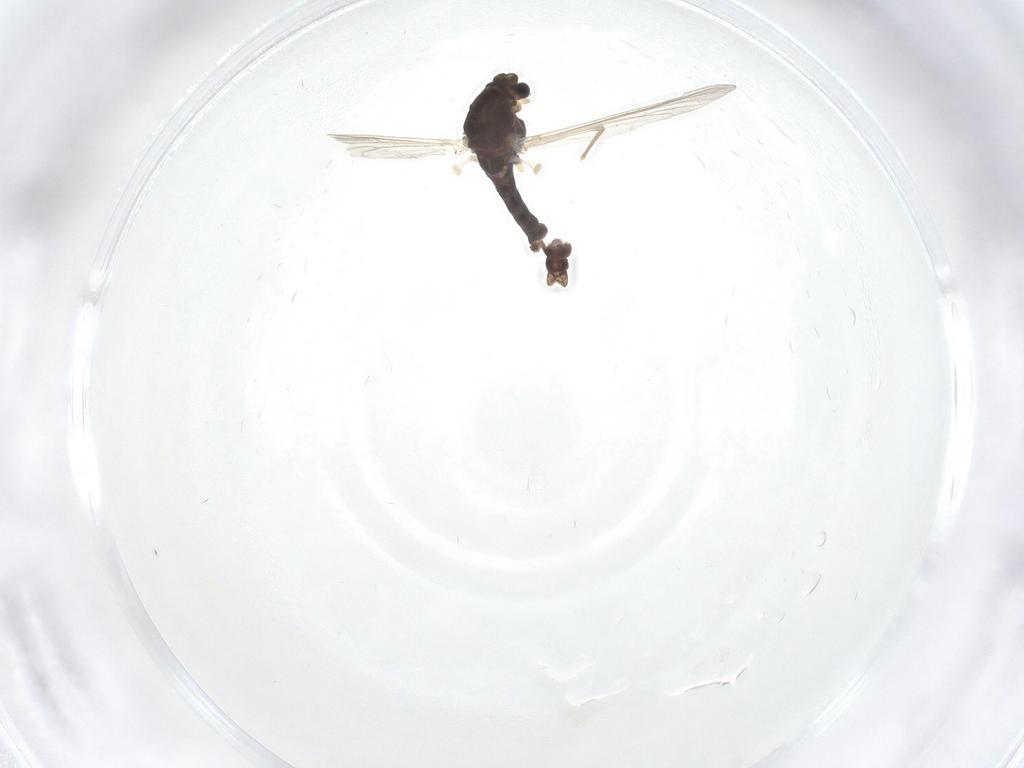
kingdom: Animalia
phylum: Arthropoda
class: Insecta
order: Diptera
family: Chironomidae
